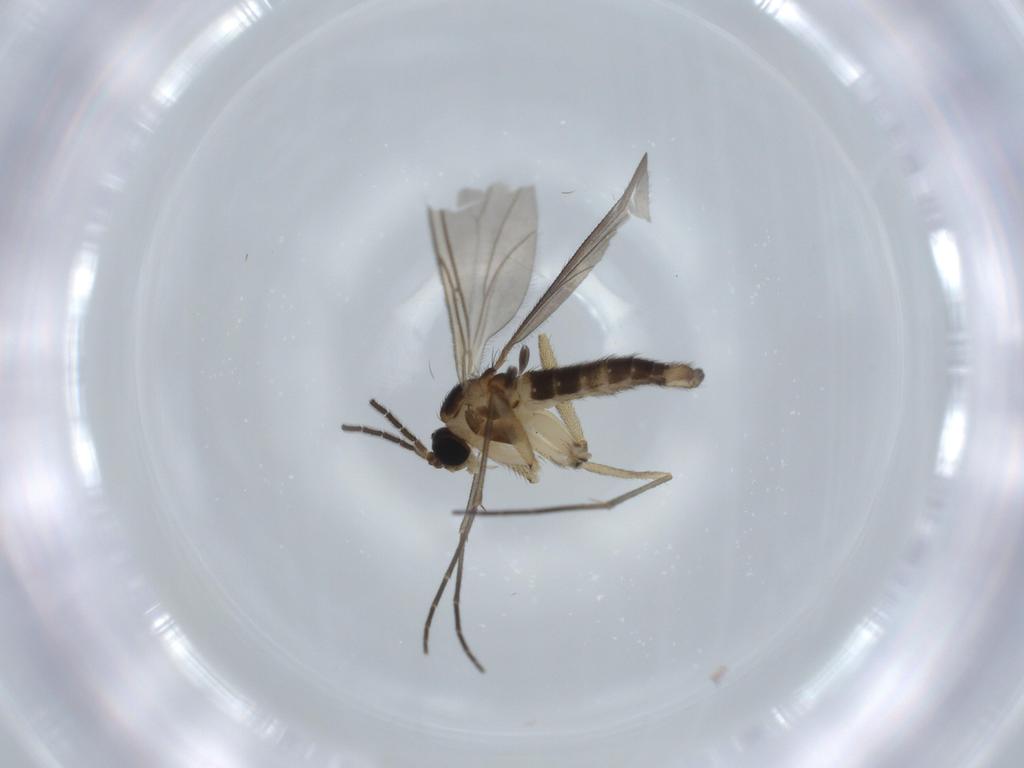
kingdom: Animalia
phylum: Arthropoda
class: Insecta
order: Diptera
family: Sciaridae
